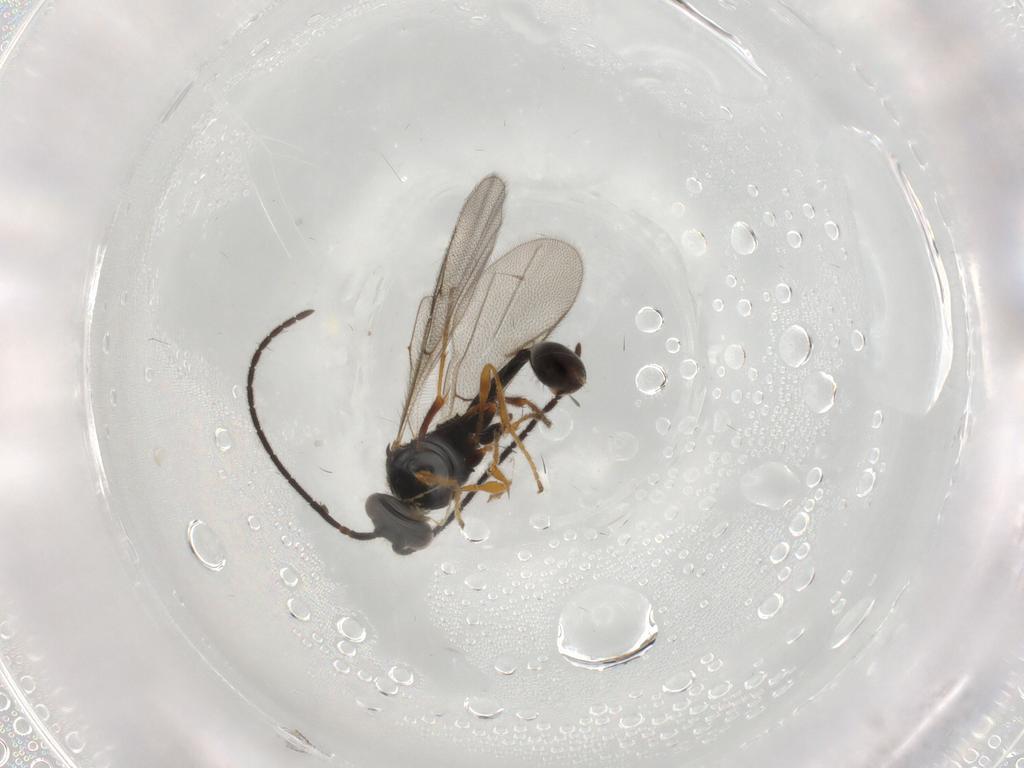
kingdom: Animalia
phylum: Arthropoda
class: Insecta
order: Hymenoptera
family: Diapriidae
